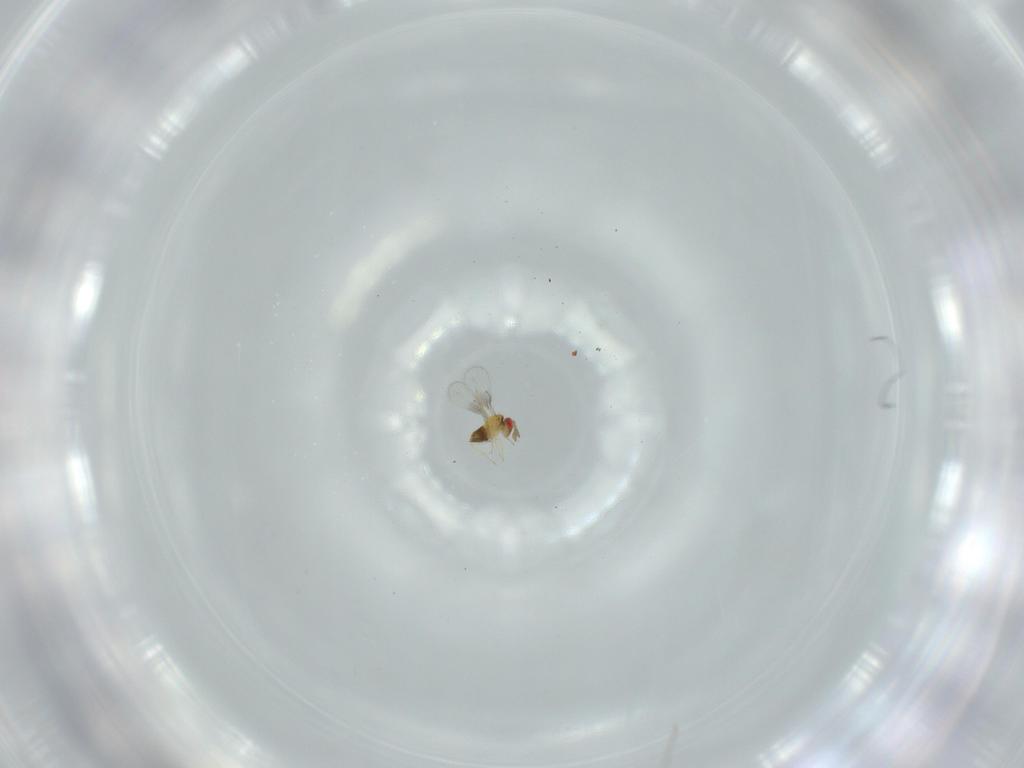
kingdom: Animalia
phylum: Arthropoda
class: Insecta
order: Hymenoptera
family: Trichogrammatidae
